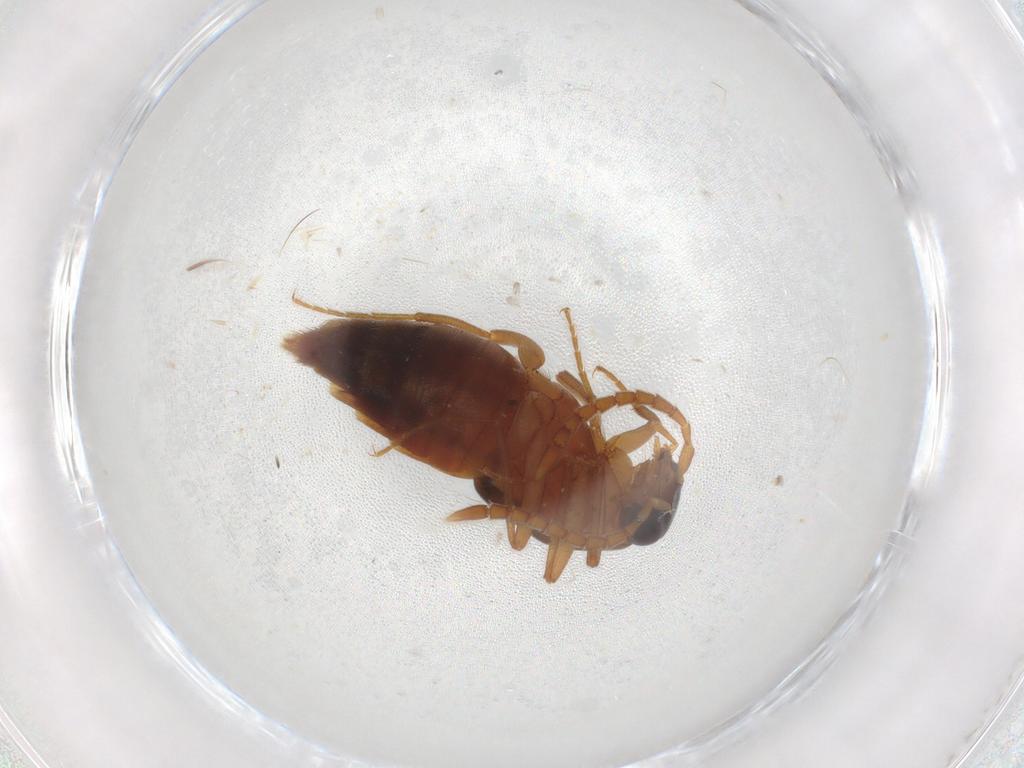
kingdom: Animalia
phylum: Arthropoda
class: Insecta
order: Coleoptera
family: Staphylinidae
